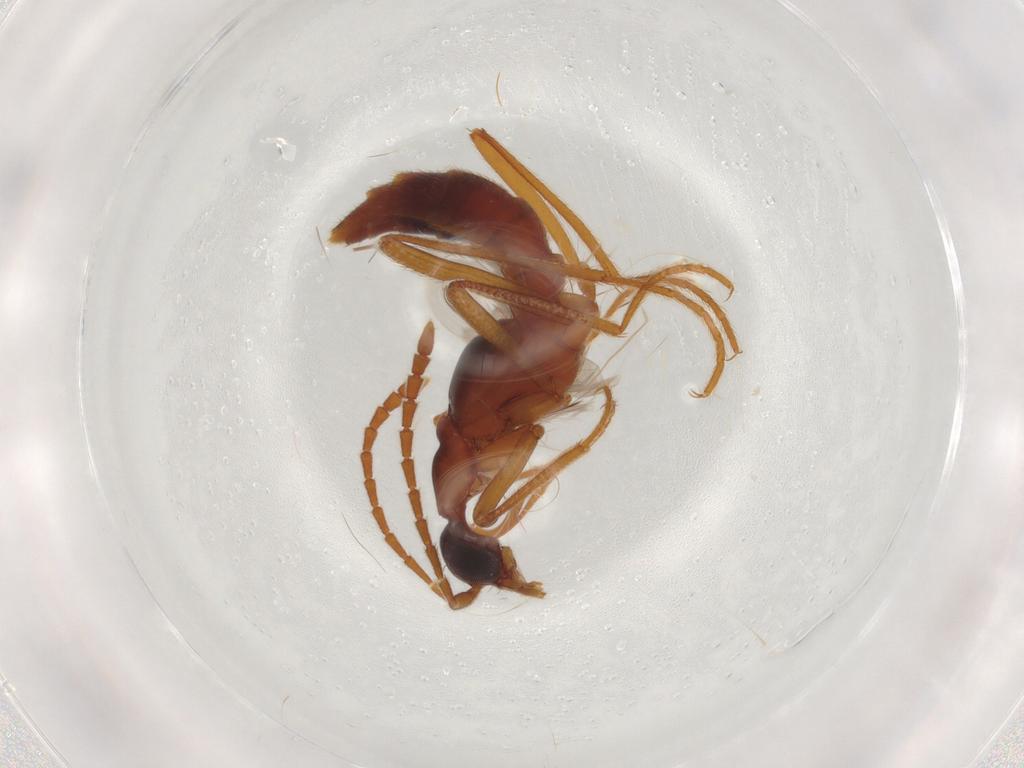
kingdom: Animalia
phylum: Arthropoda
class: Insecta
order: Coleoptera
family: Staphylinidae
